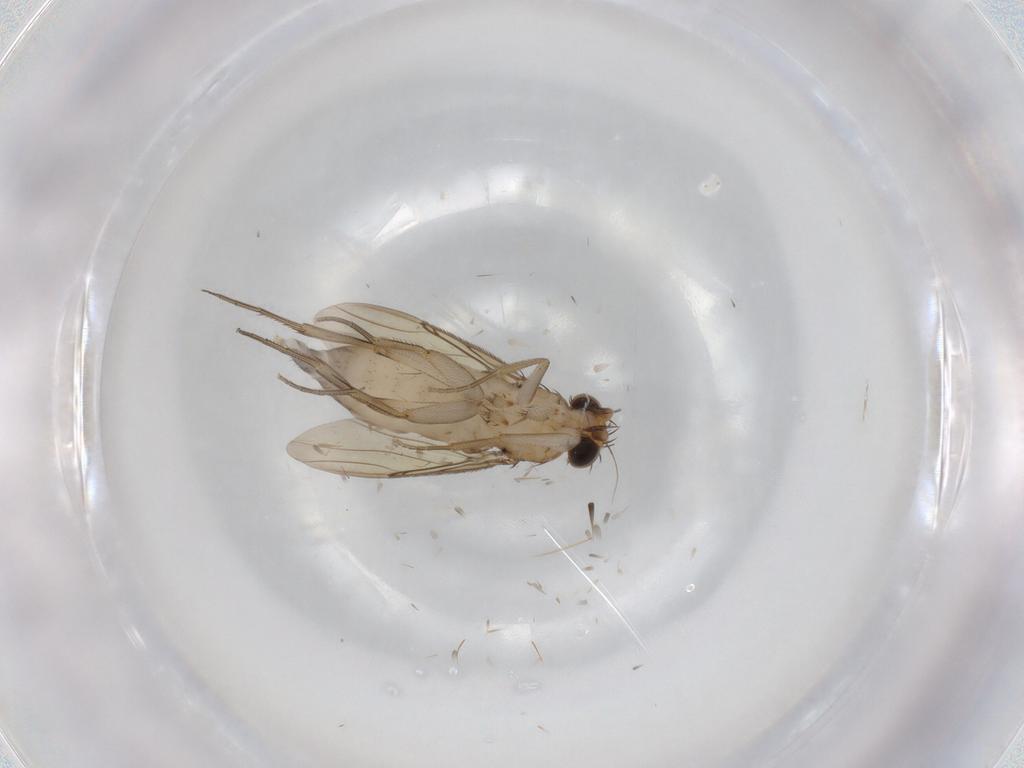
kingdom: Animalia
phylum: Arthropoda
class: Insecta
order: Diptera
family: Phoridae
